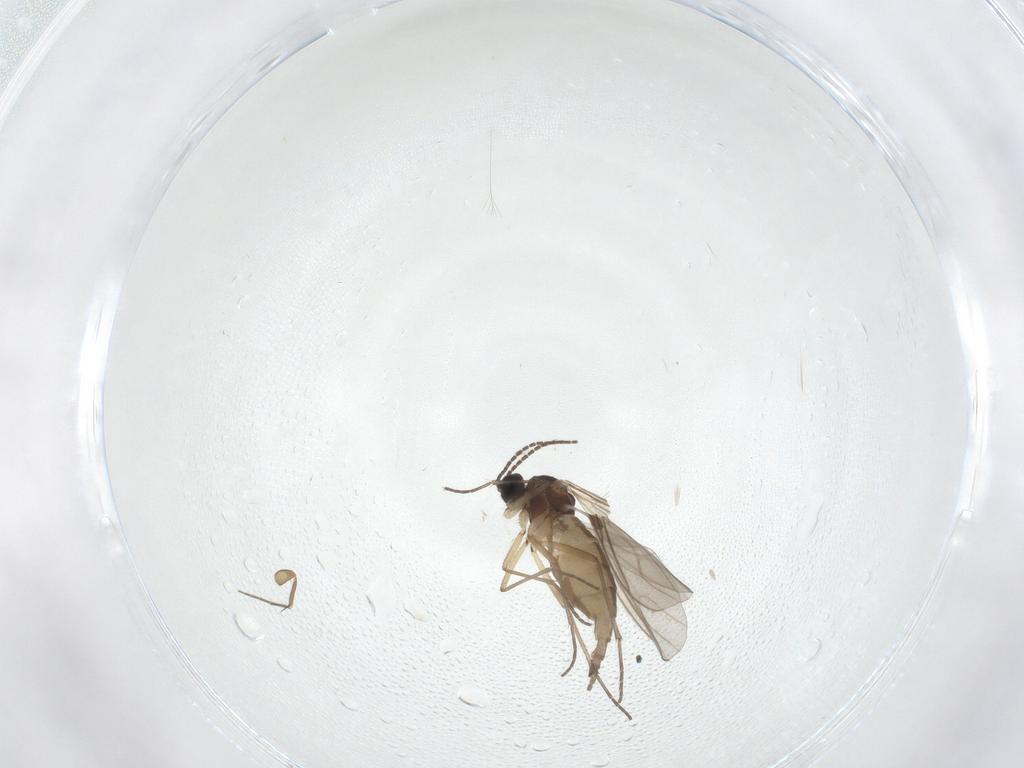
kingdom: Animalia
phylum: Arthropoda
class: Insecta
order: Diptera
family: Sciaridae
